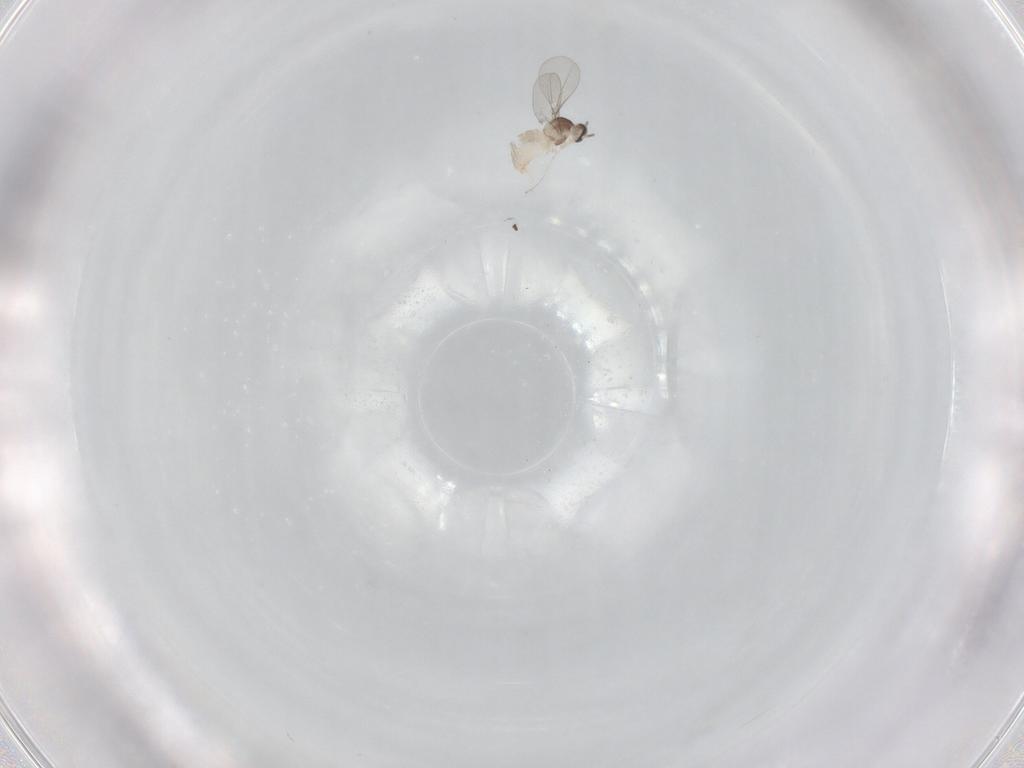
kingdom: Animalia
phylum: Arthropoda
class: Insecta
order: Diptera
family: Cecidomyiidae
